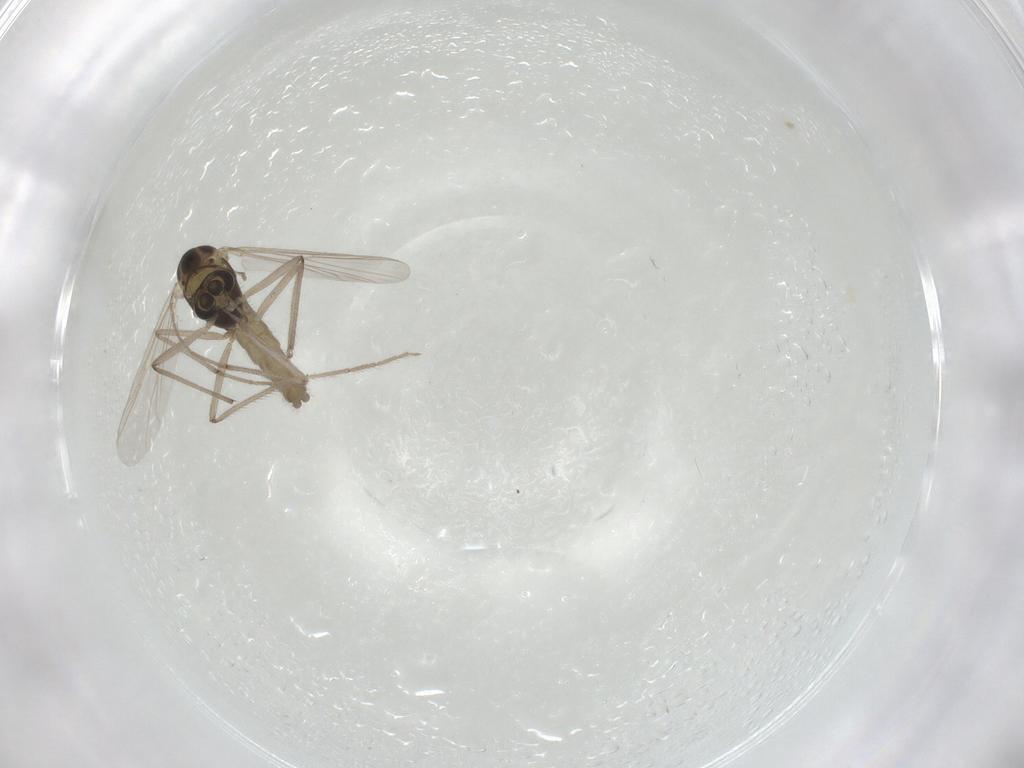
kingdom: Animalia
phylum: Arthropoda
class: Insecta
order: Diptera
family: Chironomidae
